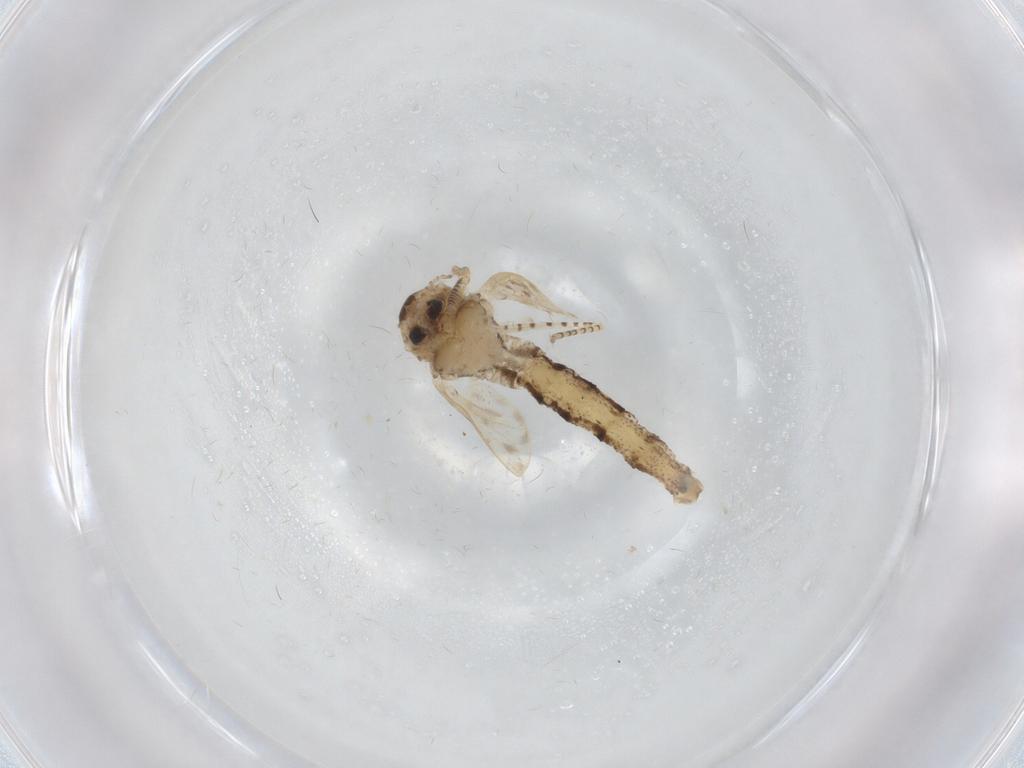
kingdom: Animalia
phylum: Arthropoda
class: Insecta
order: Diptera
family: Chaoboridae
